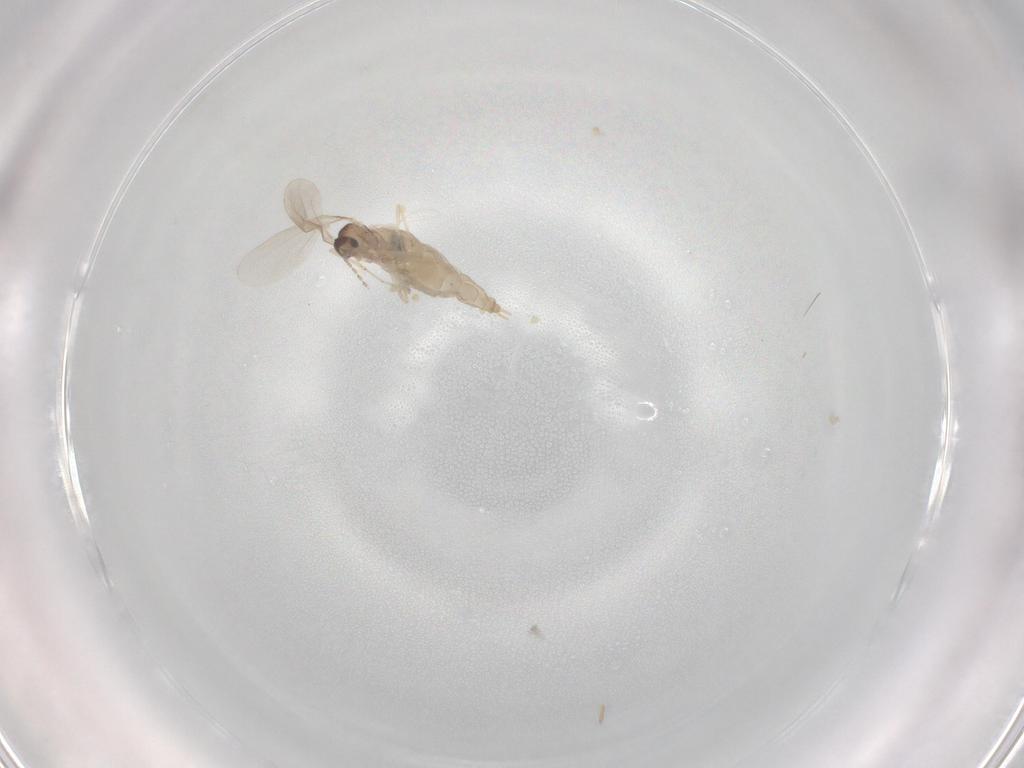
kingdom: Animalia
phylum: Arthropoda
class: Insecta
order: Diptera
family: Cecidomyiidae
